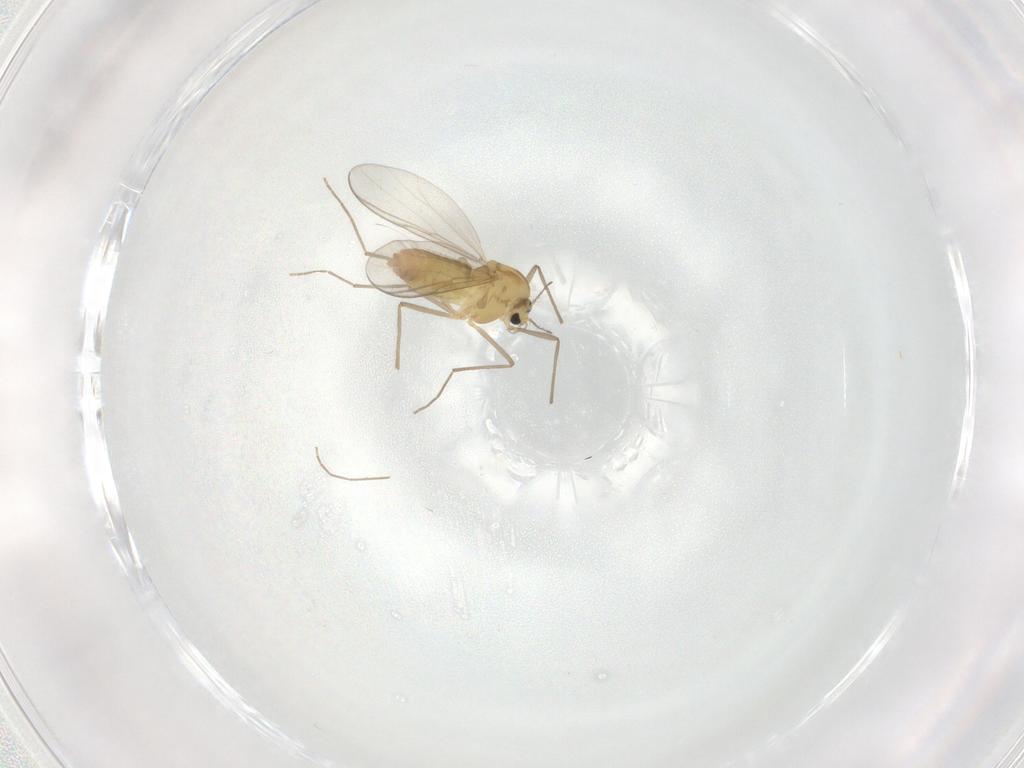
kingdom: Animalia
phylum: Arthropoda
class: Insecta
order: Diptera
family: Chironomidae
